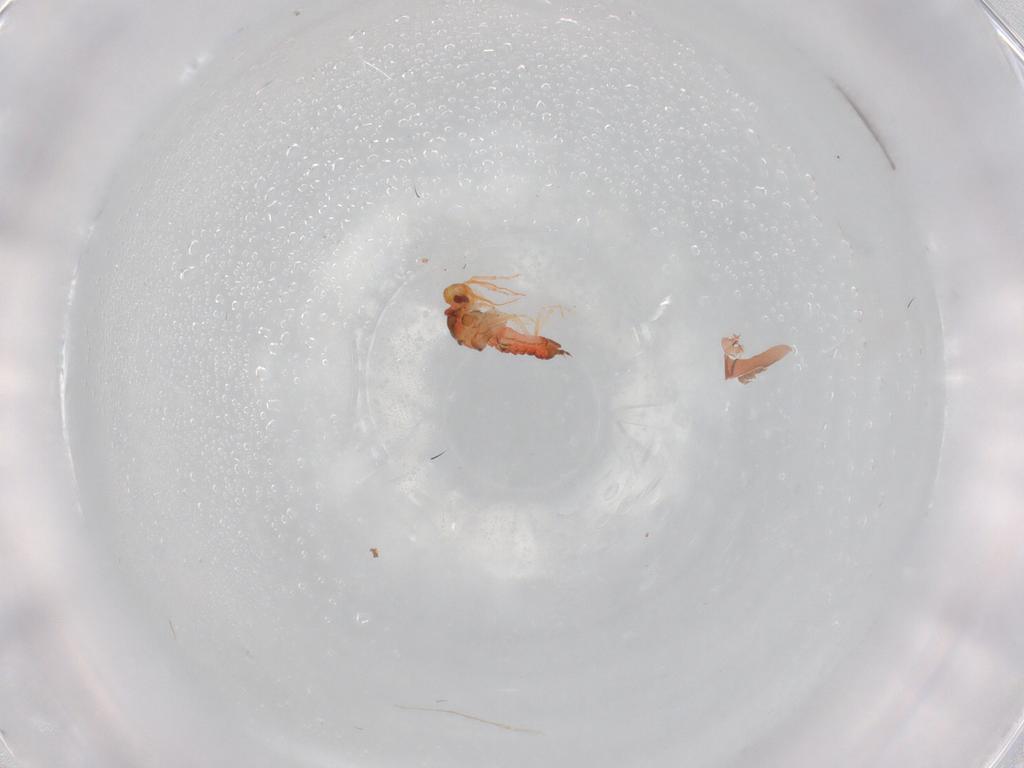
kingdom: Animalia
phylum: Arthropoda
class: Insecta
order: Hemiptera
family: Aleyrodidae
